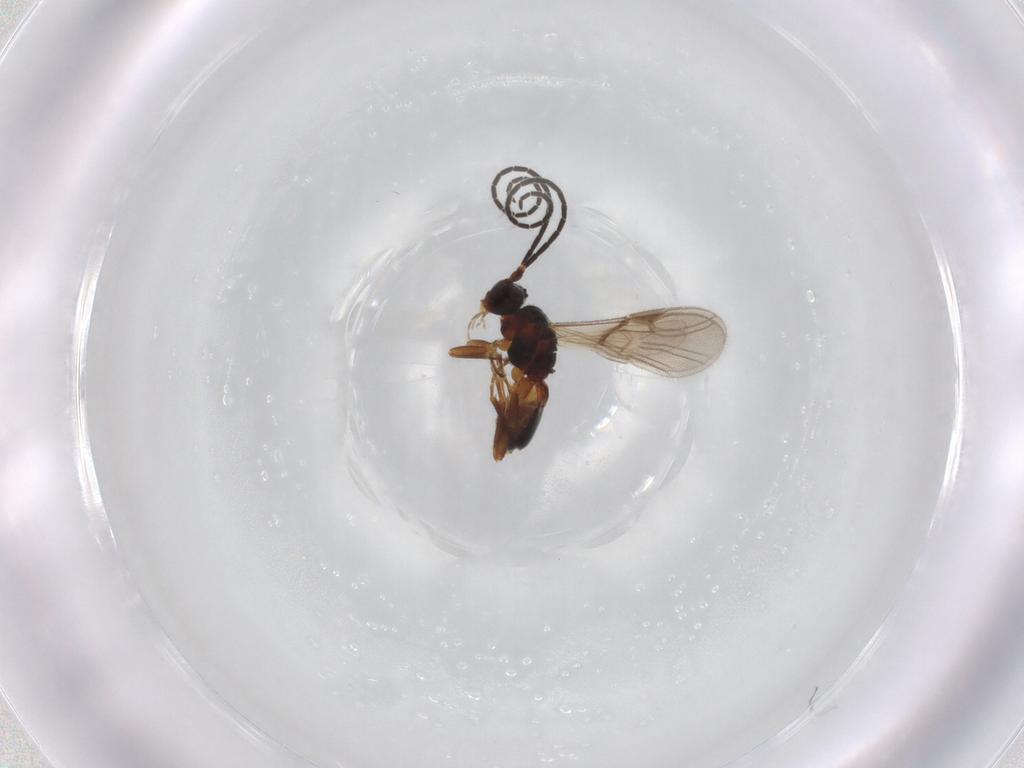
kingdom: Animalia
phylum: Arthropoda
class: Insecta
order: Hymenoptera
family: Braconidae
